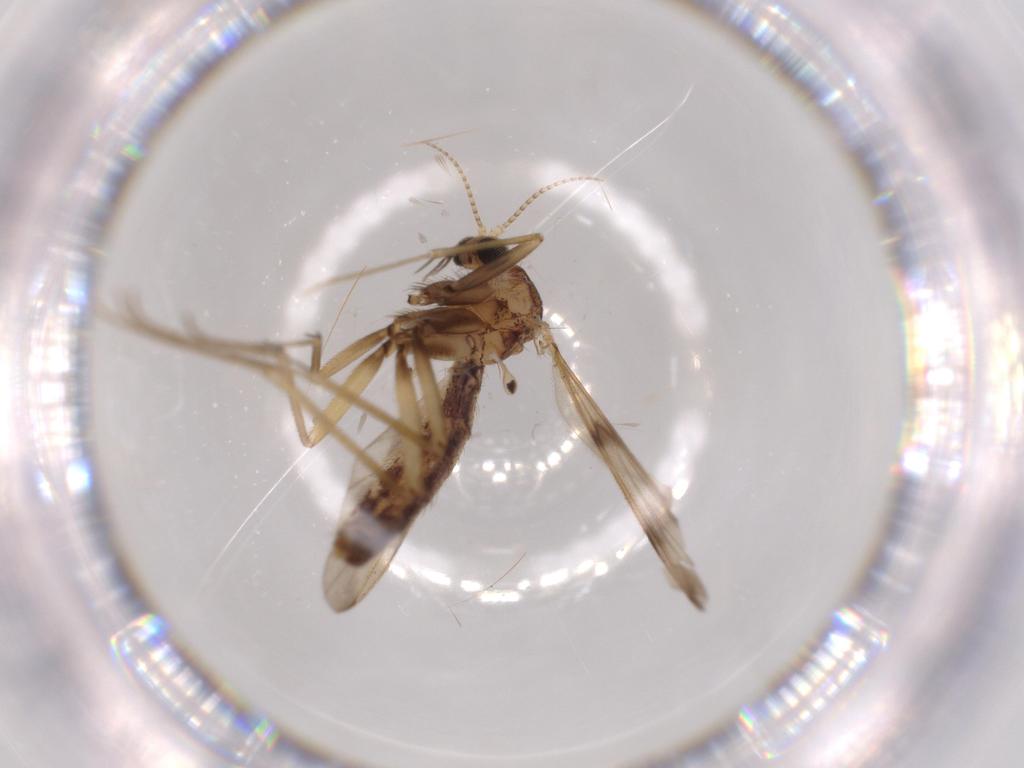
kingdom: Animalia
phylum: Arthropoda
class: Insecta
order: Diptera
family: Mycetophilidae
